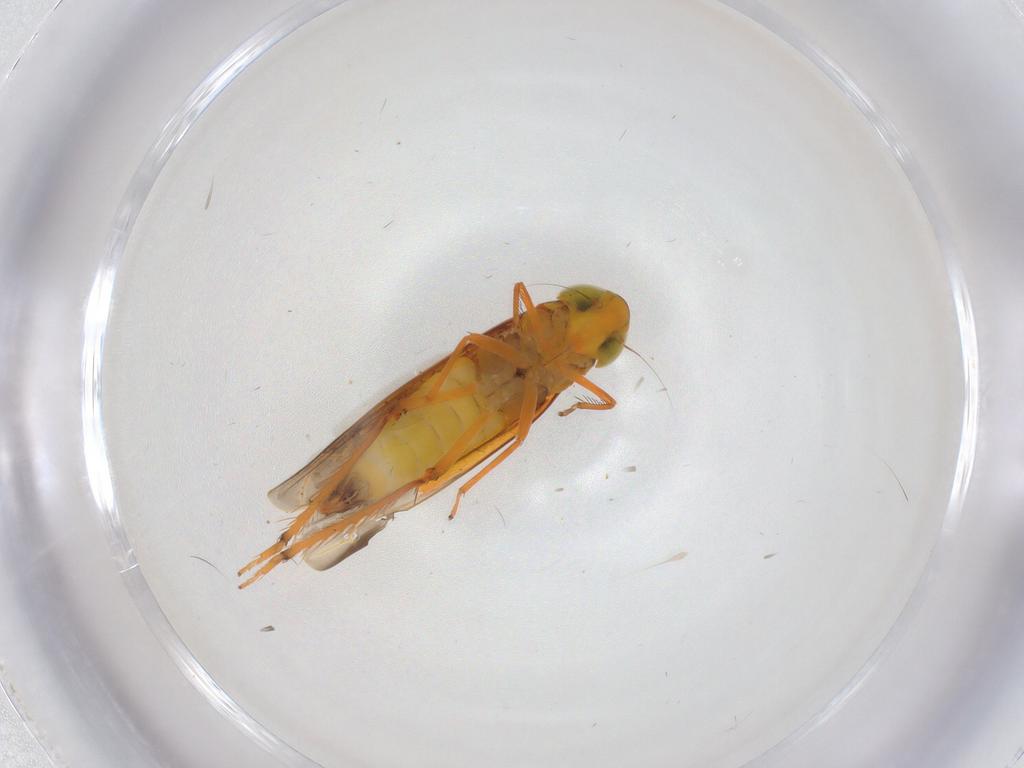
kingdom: Animalia
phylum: Arthropoda
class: Insecta
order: Hemiptera
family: Cicadellidae
